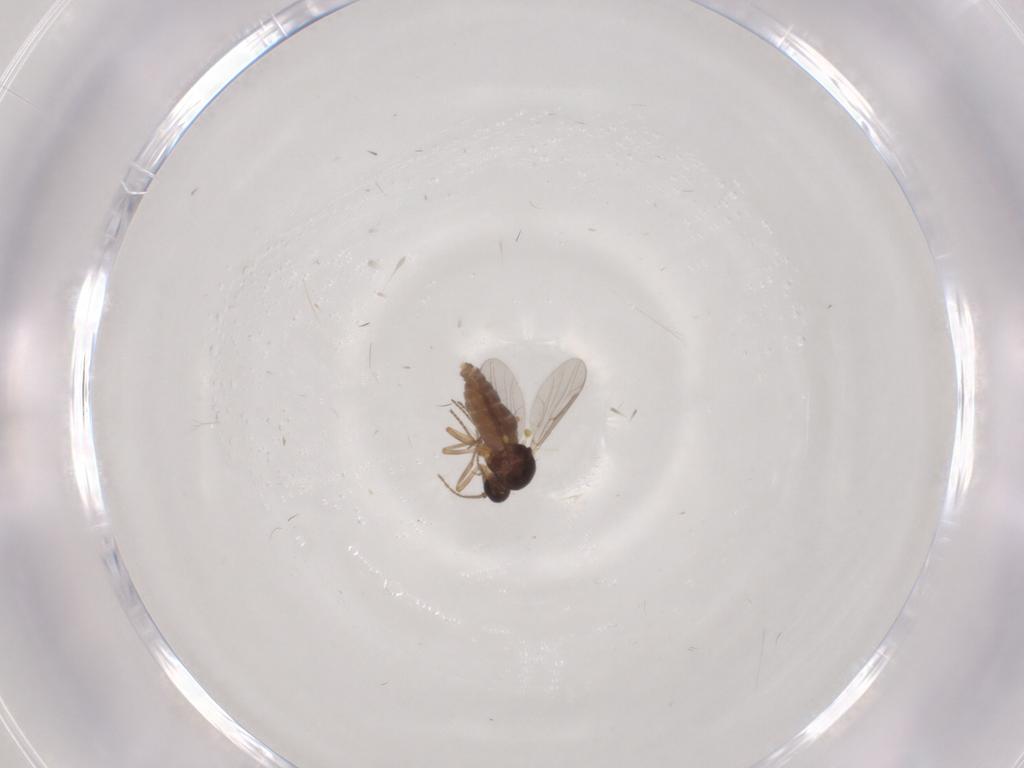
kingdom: Animalia
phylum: Arthropoda
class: Insecta
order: Diptera
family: Ceratopogonidae
